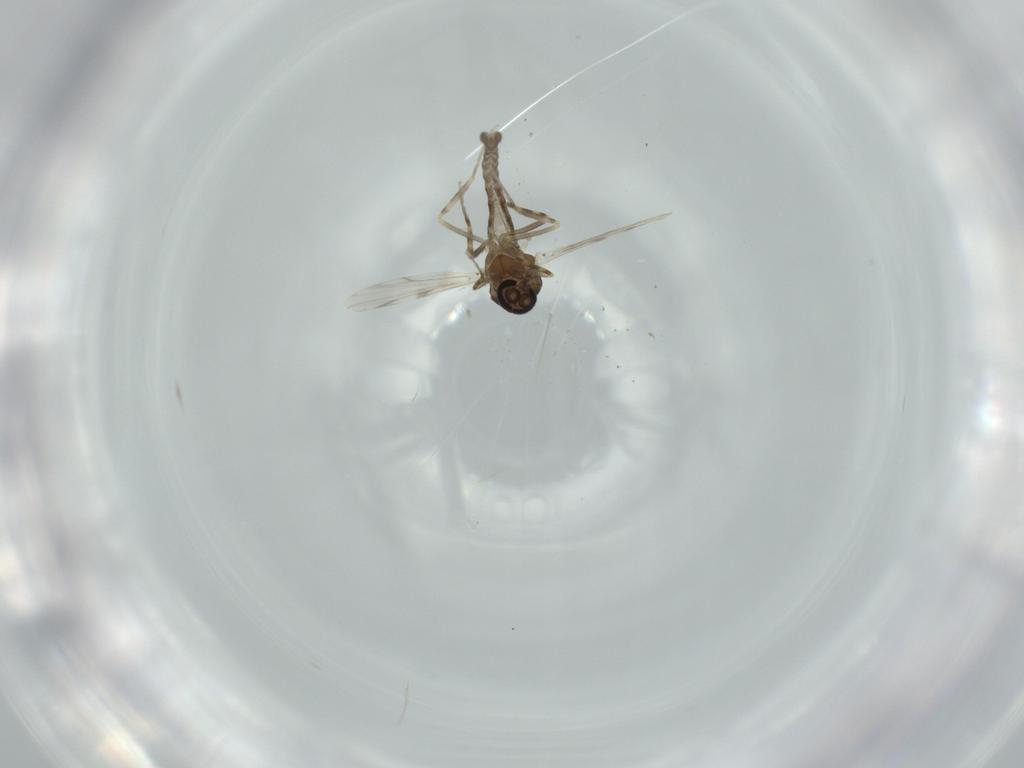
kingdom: Animalia
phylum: Arthropoda
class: Insecta
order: Diptera
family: Ceratopogonidae
